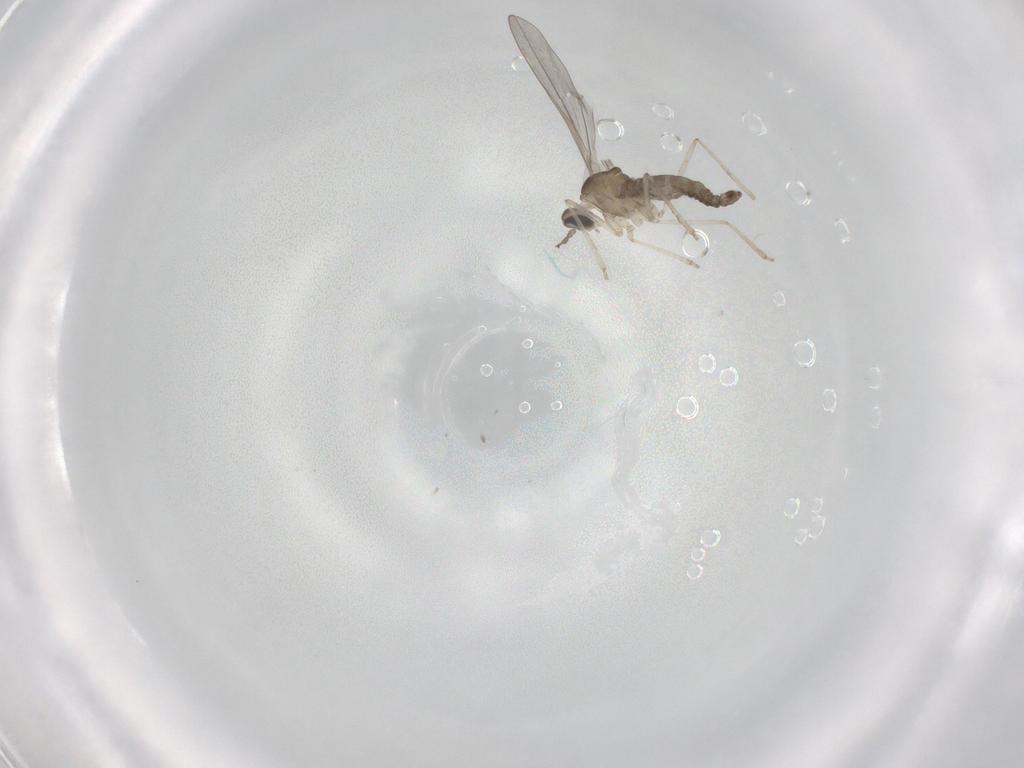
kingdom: Animalia
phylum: Arthropoda
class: Insecta
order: Diptera
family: Cecidomyiidae
